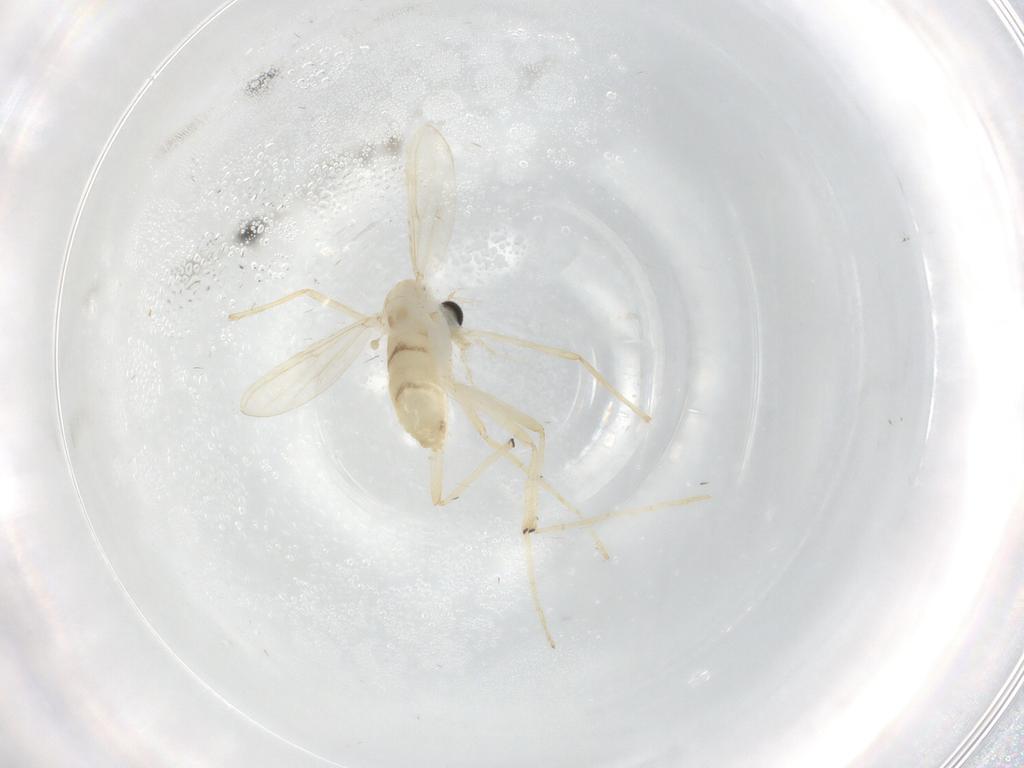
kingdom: Animalia
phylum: Arthropoda
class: Insecta
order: Diptera
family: Chironomidae
